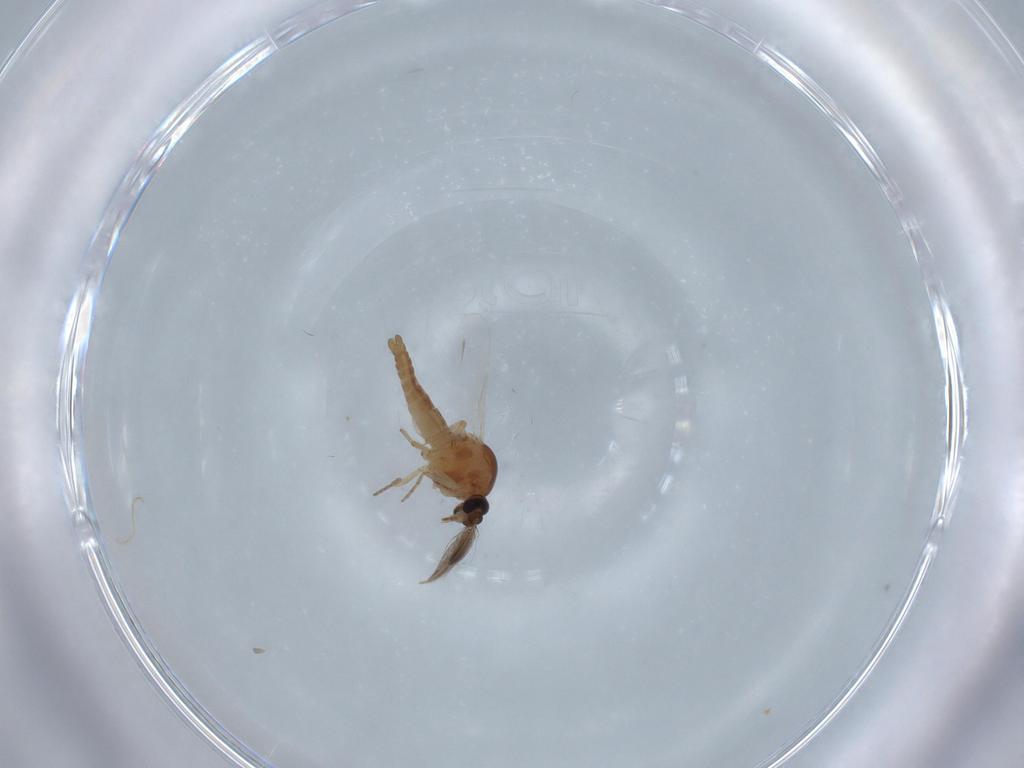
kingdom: Animalia
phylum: Arthropoda
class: Insecta
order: Diptera
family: Ceratopogonidae
